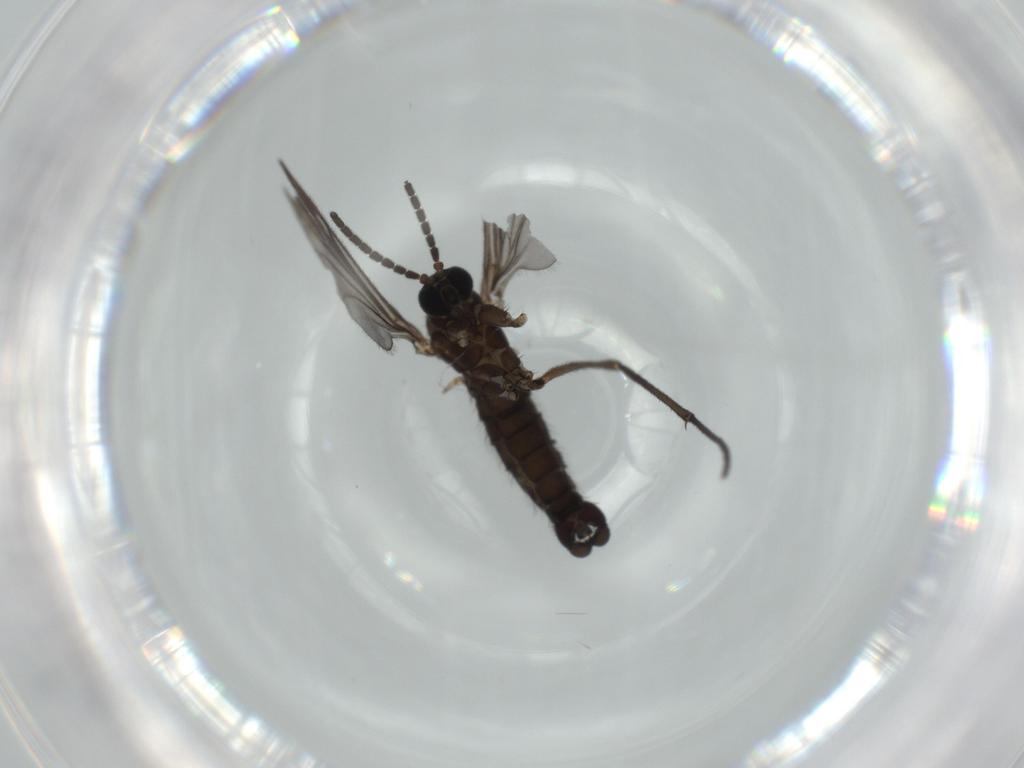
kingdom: Animalia
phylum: Arthropoda
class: Insecta
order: Diptera
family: Sciaridae
